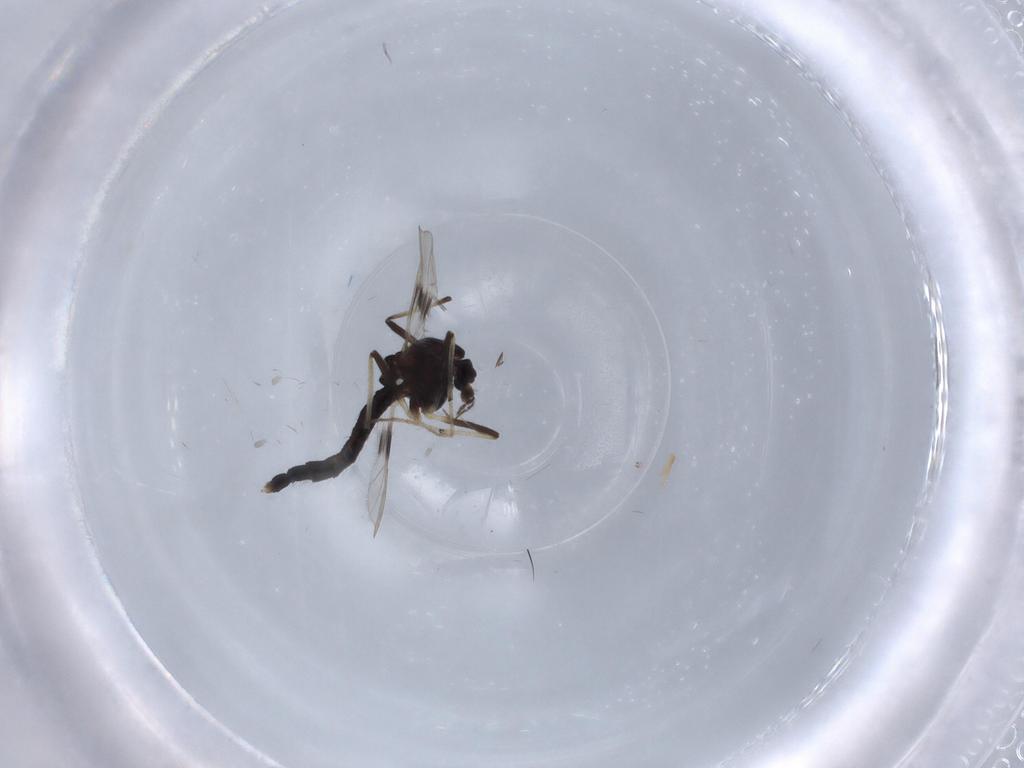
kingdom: Animalia
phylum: Arthropoda
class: Insecta
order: Diptera
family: Chironomidae
